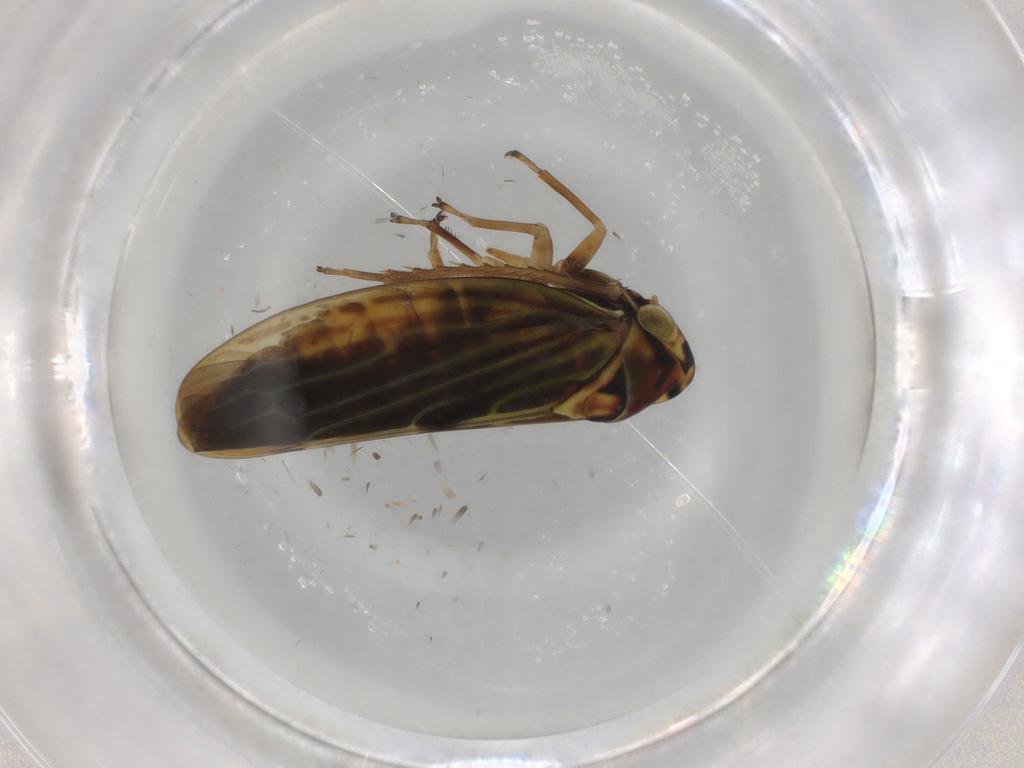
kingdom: Animalia
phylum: Arthropoda
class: Insecta
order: Hemiptera
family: Cicadellidae
